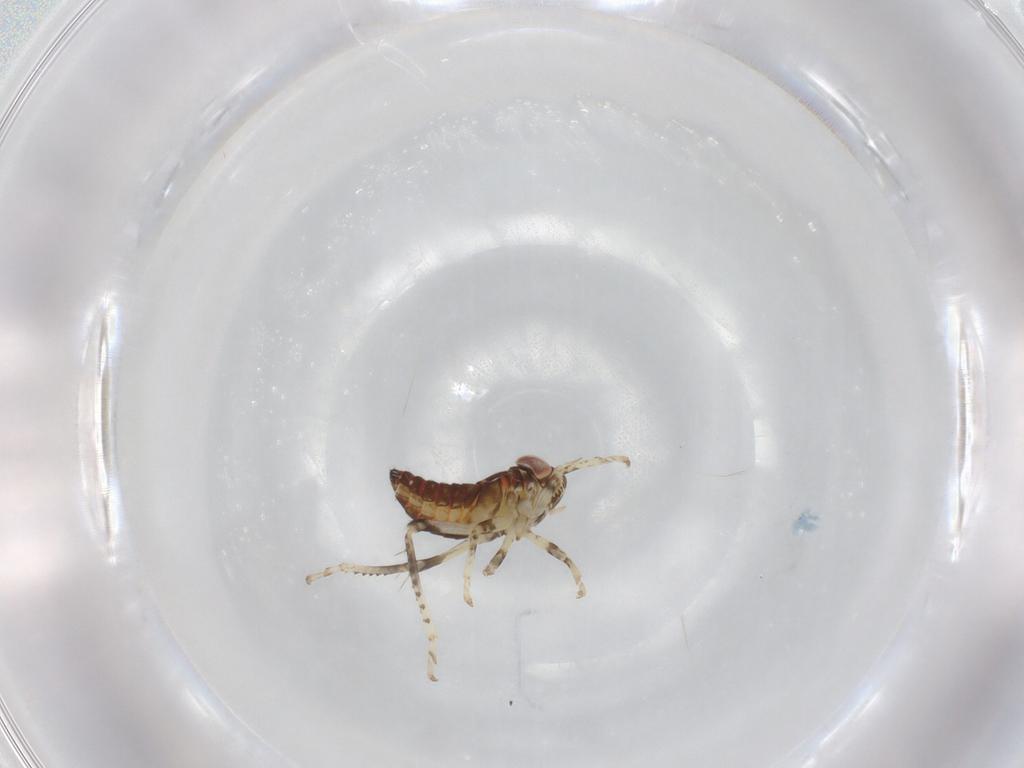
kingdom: Animalia
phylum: Arthropoda
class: Insecta
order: Hemiptera
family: Cicadellidae
